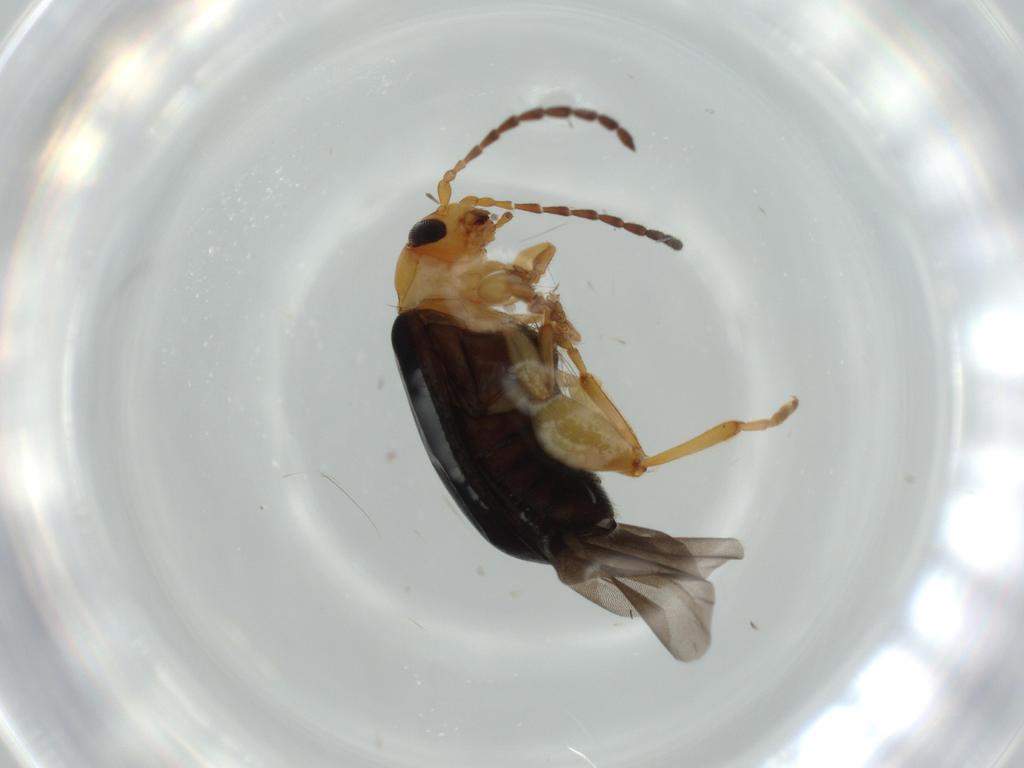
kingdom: Animalia
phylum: Arthropoda
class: Insecta
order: Coleoptera
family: Chrysomelidae
